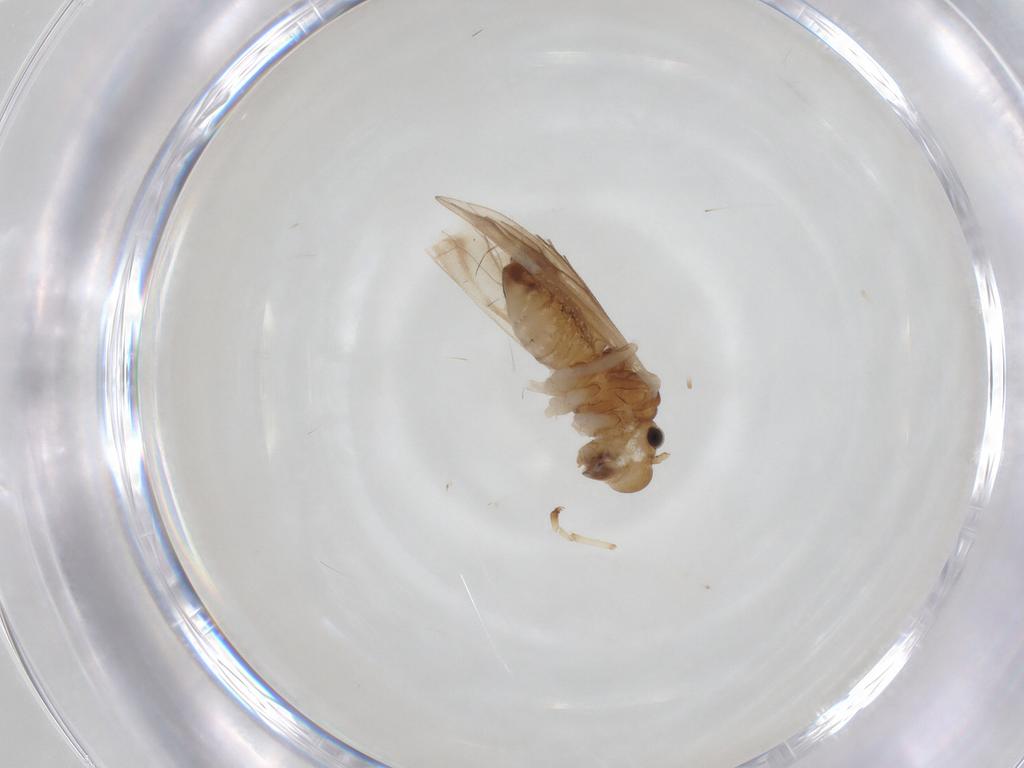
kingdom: Animalia
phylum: Arthropoda
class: Insecta
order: Psocodea
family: Philotarsidae
